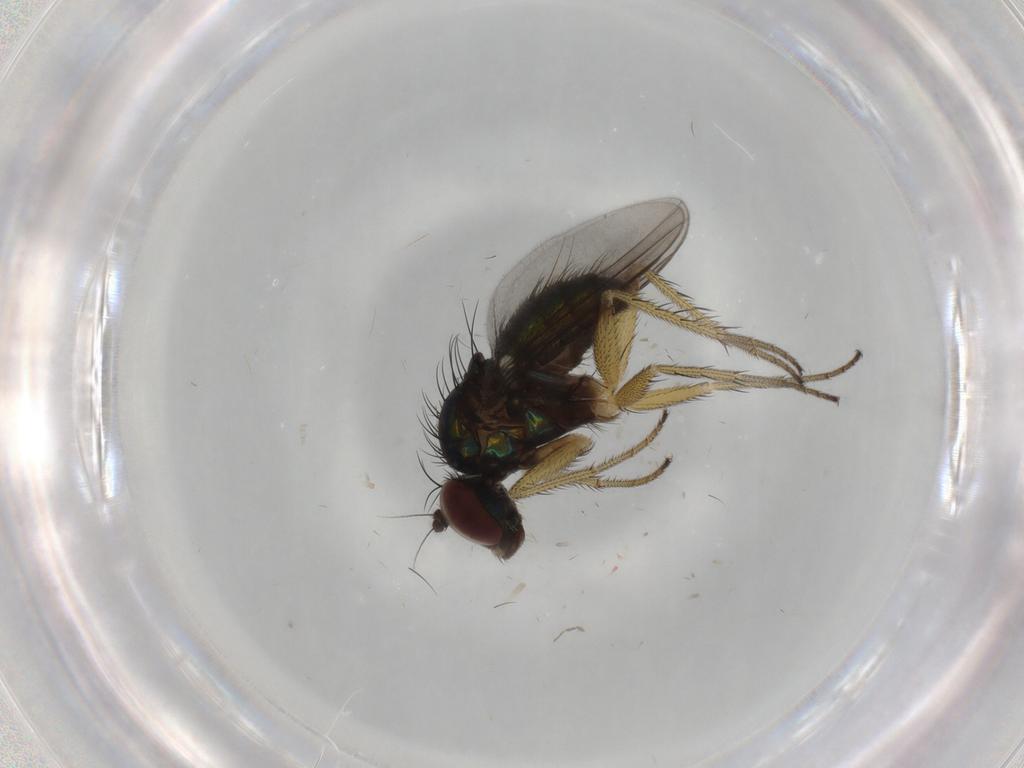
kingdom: Animalia
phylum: Arthropoda
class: Insecta
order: Diptera
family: Dolichopodidae
